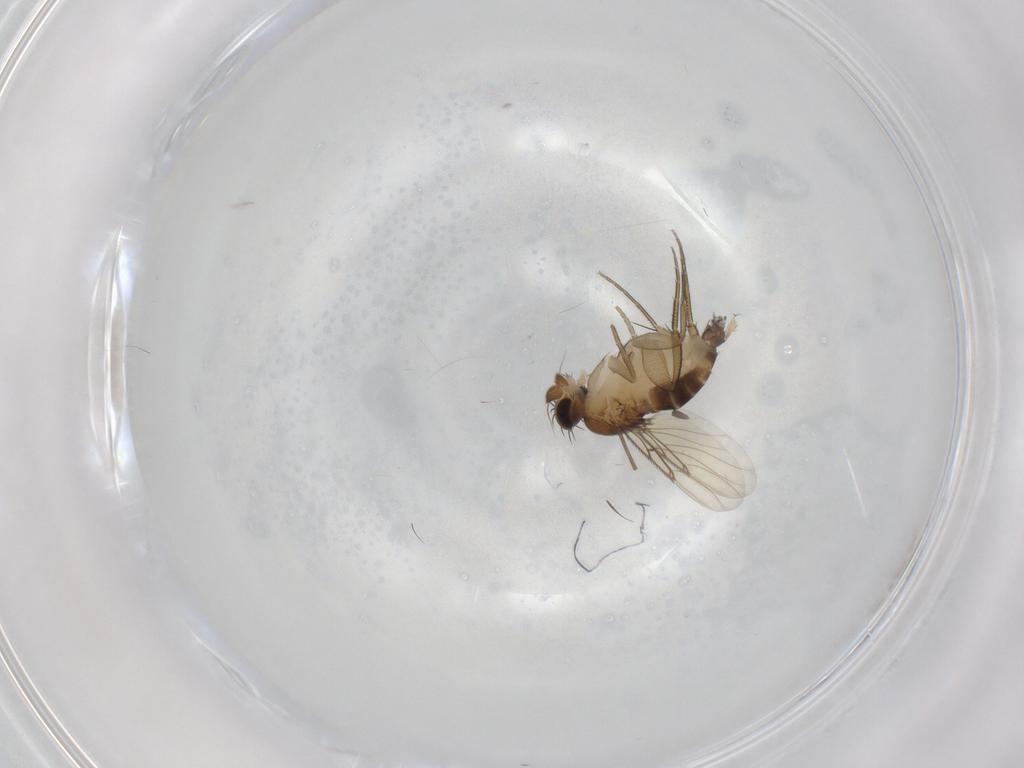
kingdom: Animalia
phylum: Arthropoda
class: Insecta
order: Diptera
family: Phoridae
